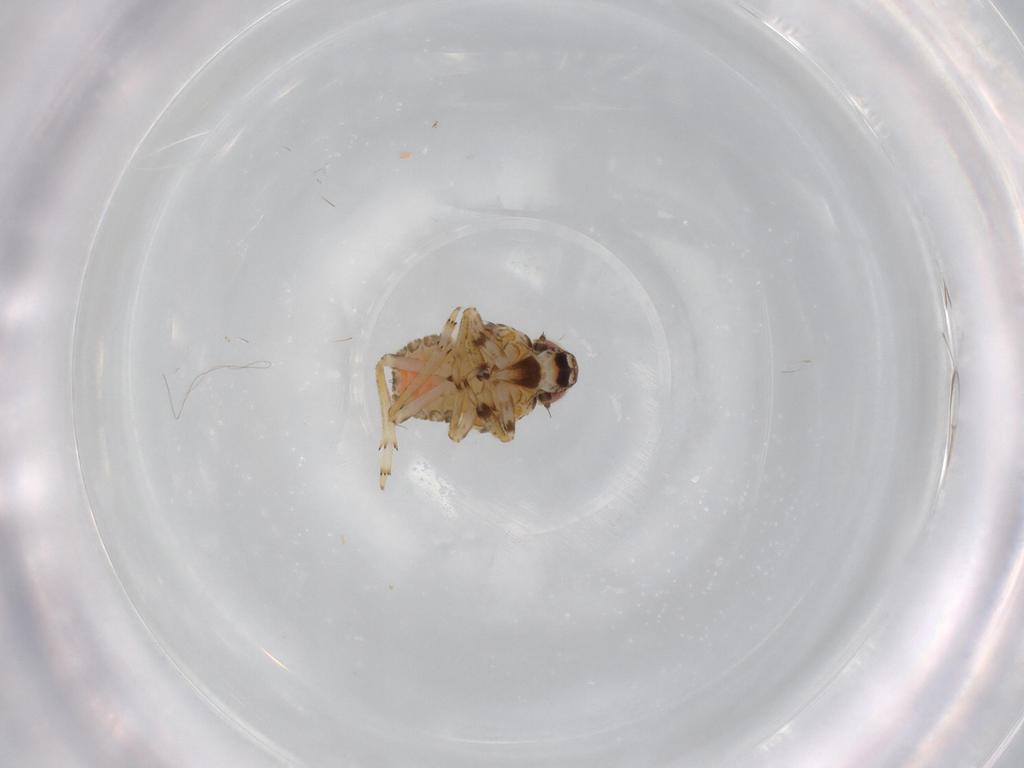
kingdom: Animalia
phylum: Arthropoda
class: Insecta
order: Hemiptera
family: Issidae
